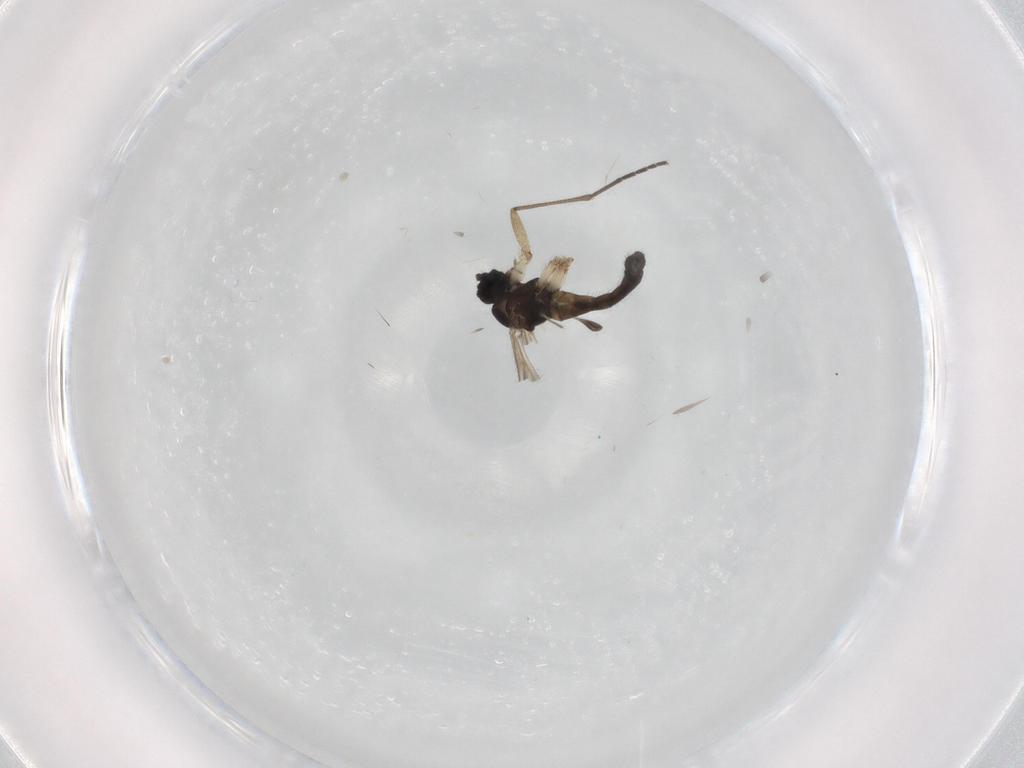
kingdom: Animalia
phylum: Arthropoda
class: Insecta
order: Diptera
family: Sciaridae
